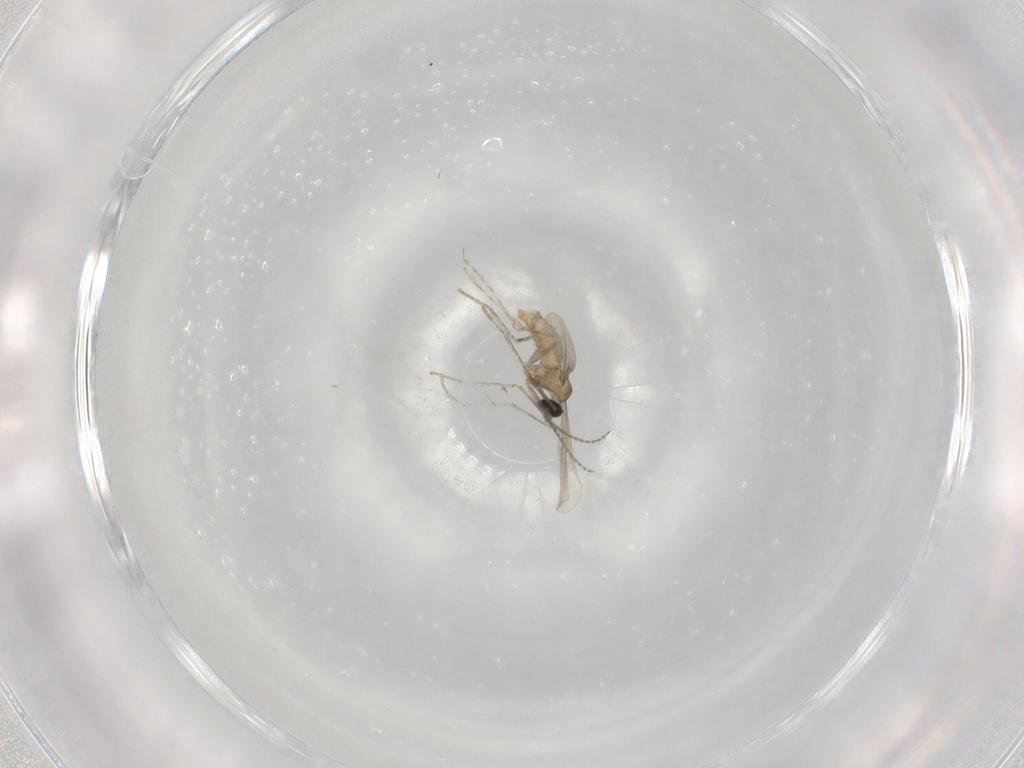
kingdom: Animalia
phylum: Arthropoda
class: Insecta
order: Diptera
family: Cecidomyiidae
